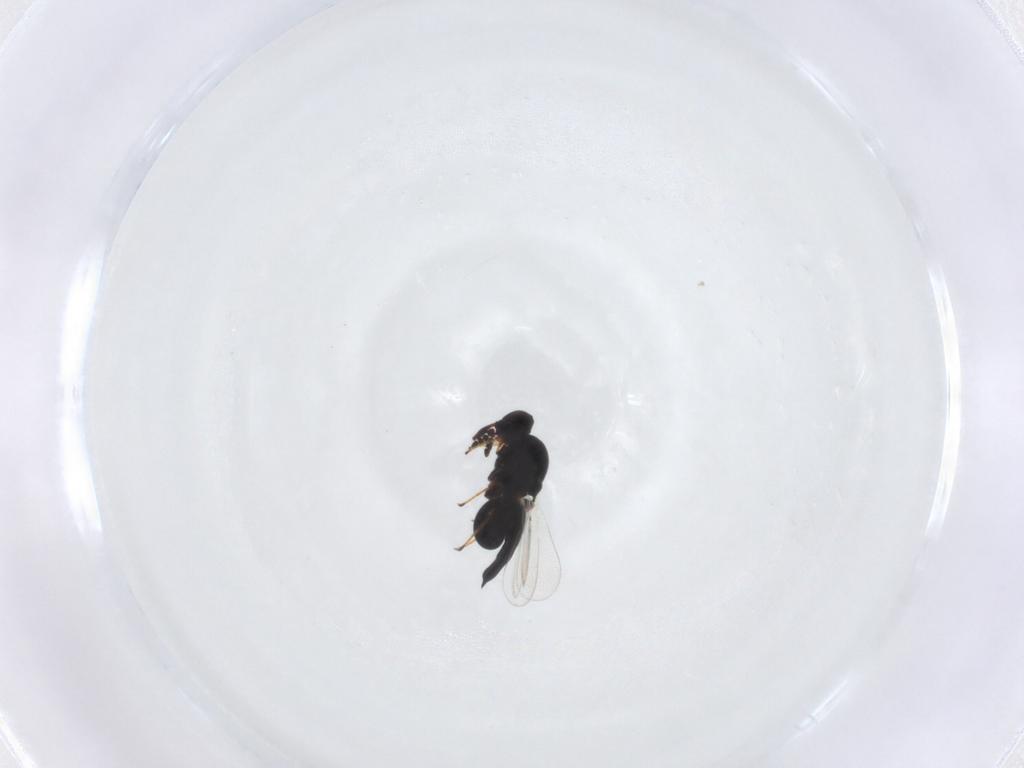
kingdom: Animalia
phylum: Arthropoda
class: Insecta
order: Hymenoptera
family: Platygastridae
